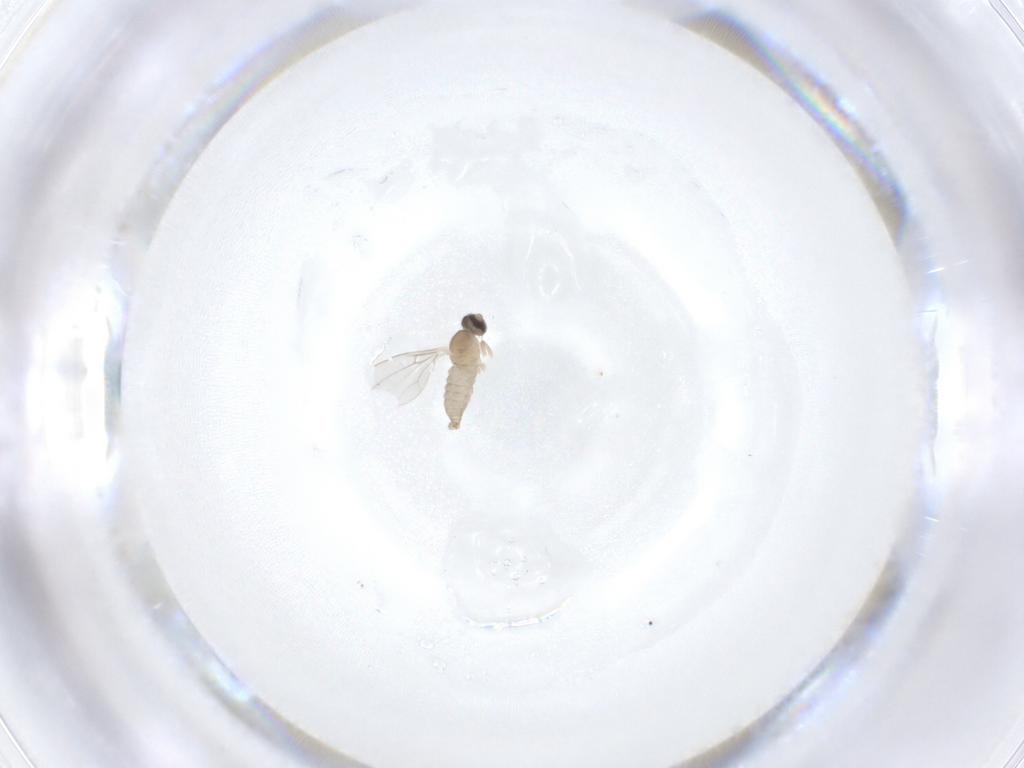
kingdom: Animalia
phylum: Arthropoda
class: Insecta
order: Diptera
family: Cecidomyiidae
